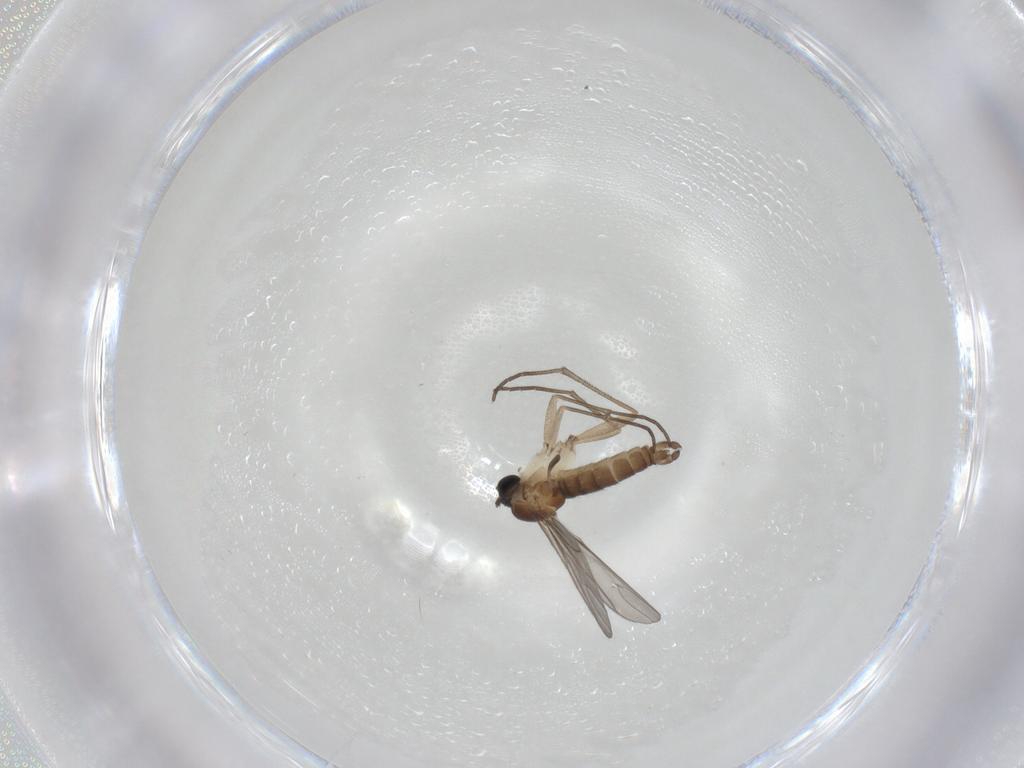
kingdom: Animalia
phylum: Arthropoda
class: Insecta
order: Diptera
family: Sciaridae
